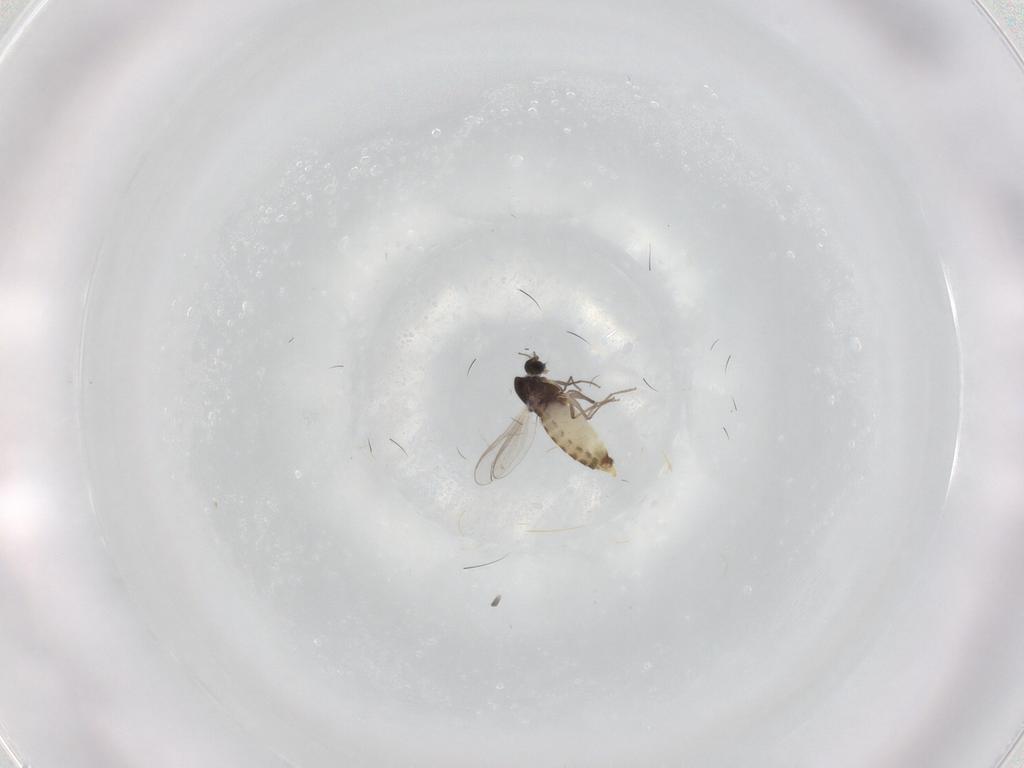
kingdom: Animalia
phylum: Arthropoda
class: Insecta
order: Diptera
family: Chironomidae
